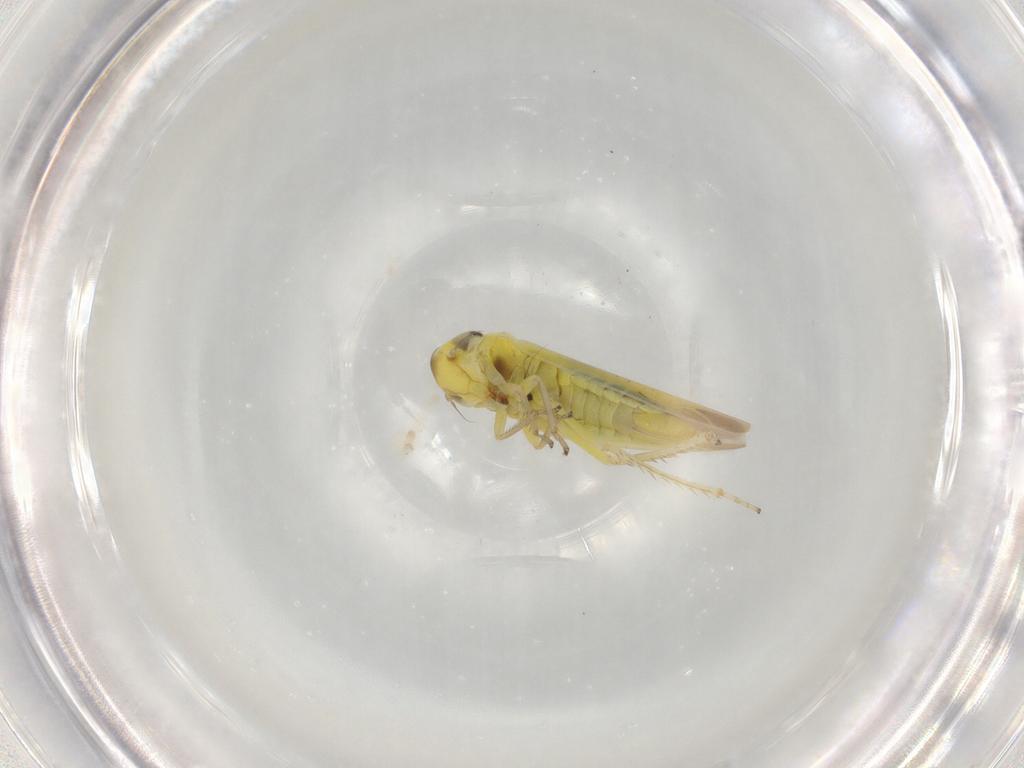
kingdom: Animalia
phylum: Arthropoda
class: Insecta
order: Hemiptera
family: Cicadellidae
